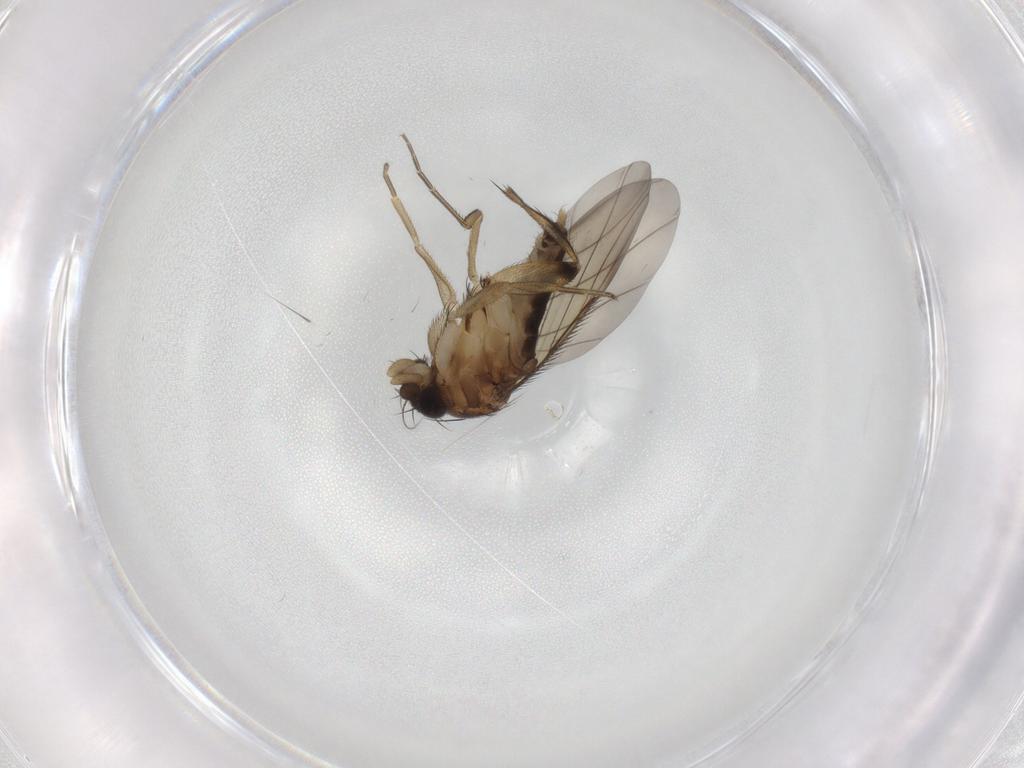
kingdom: Animalia
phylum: Arthropoda
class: Insecta
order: Diptera
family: Phoridae
